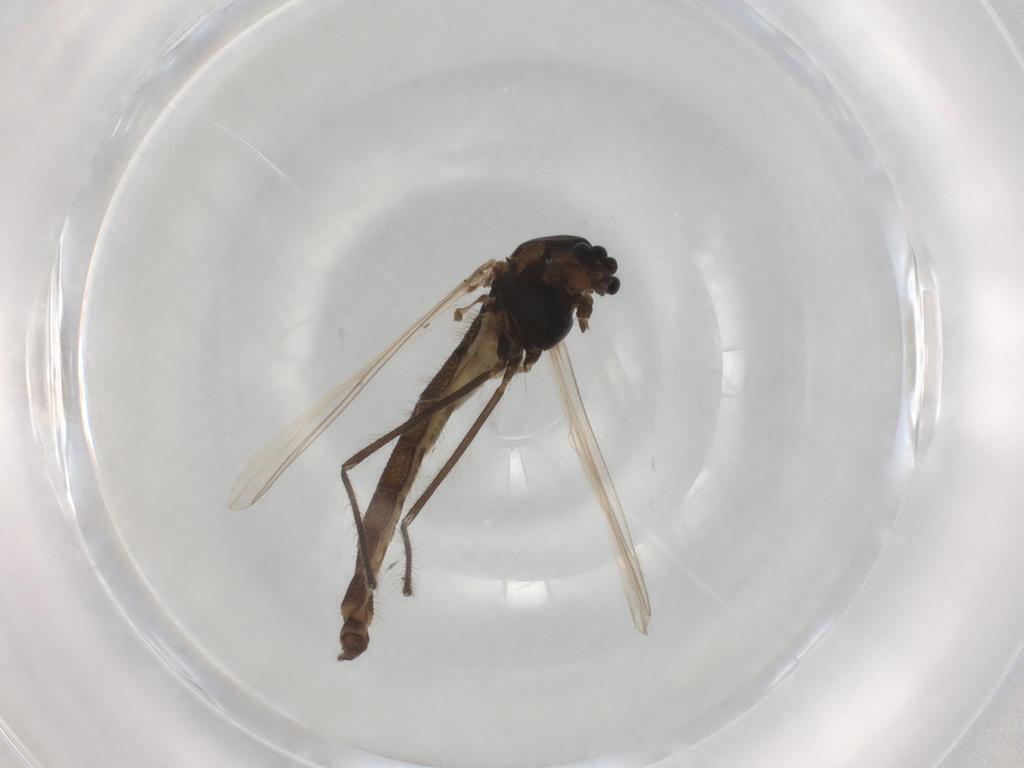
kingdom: Animalia
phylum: Arthropoda
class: Insecta
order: Diptera
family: Chironomidae
